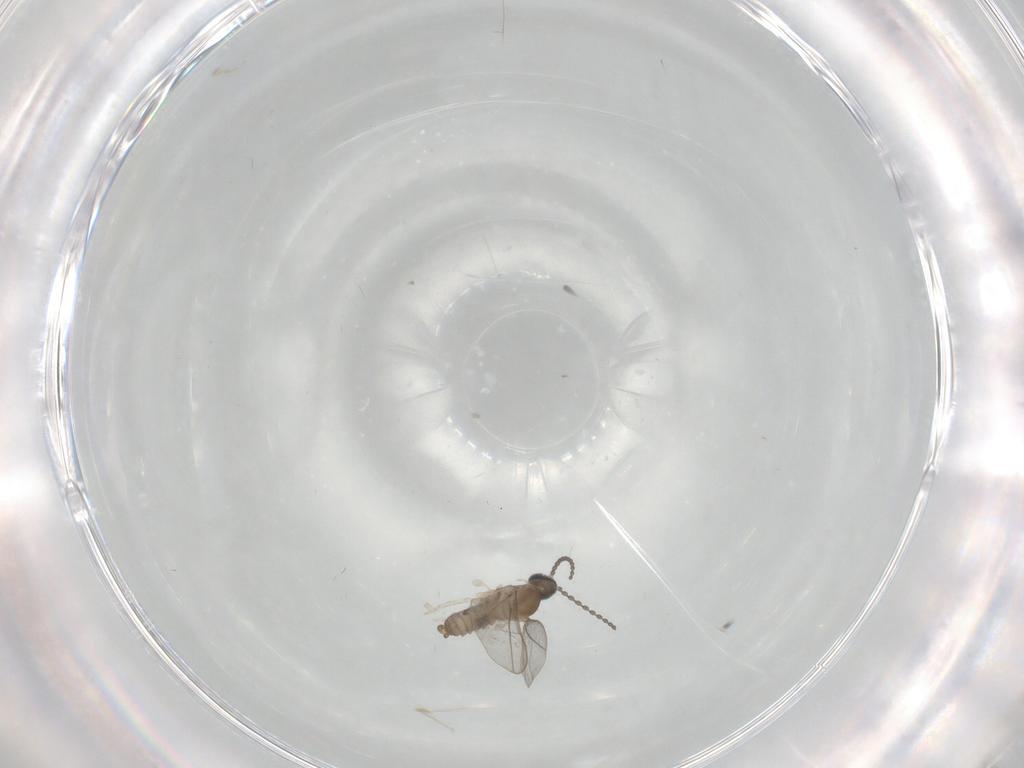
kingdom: Animalia
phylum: Arthropoda
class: Insecta
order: Diptera
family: Cecidomyiidae
